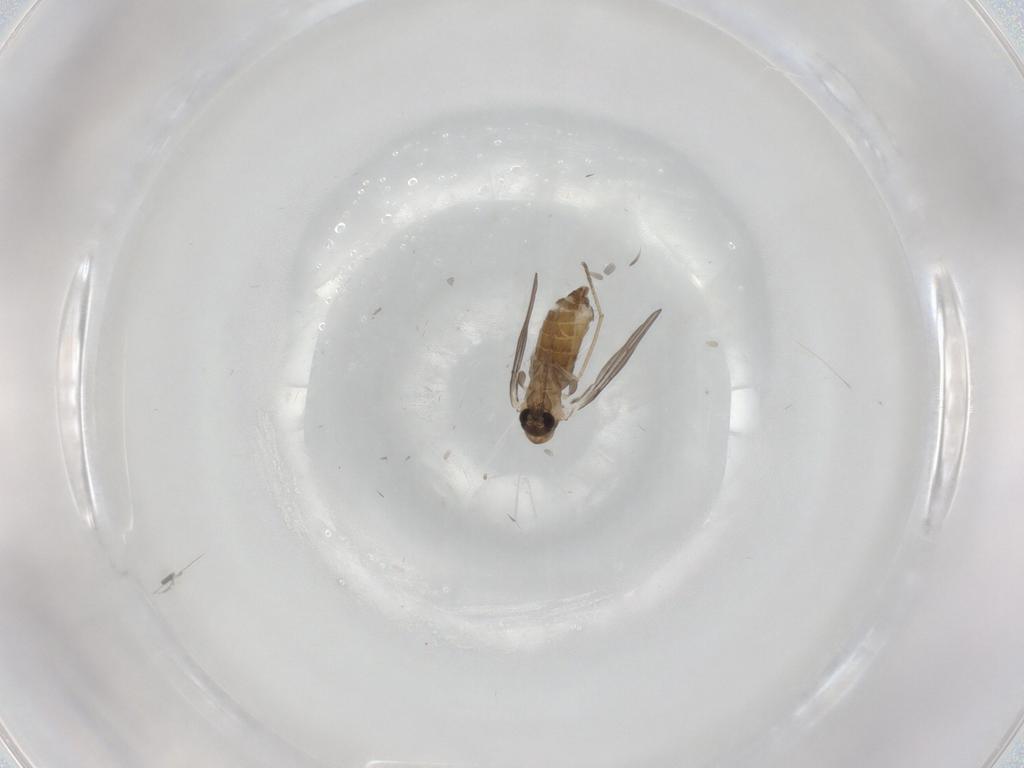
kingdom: Animalia
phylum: Arthropoda
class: Insecta
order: Diptera
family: Psychodidae
